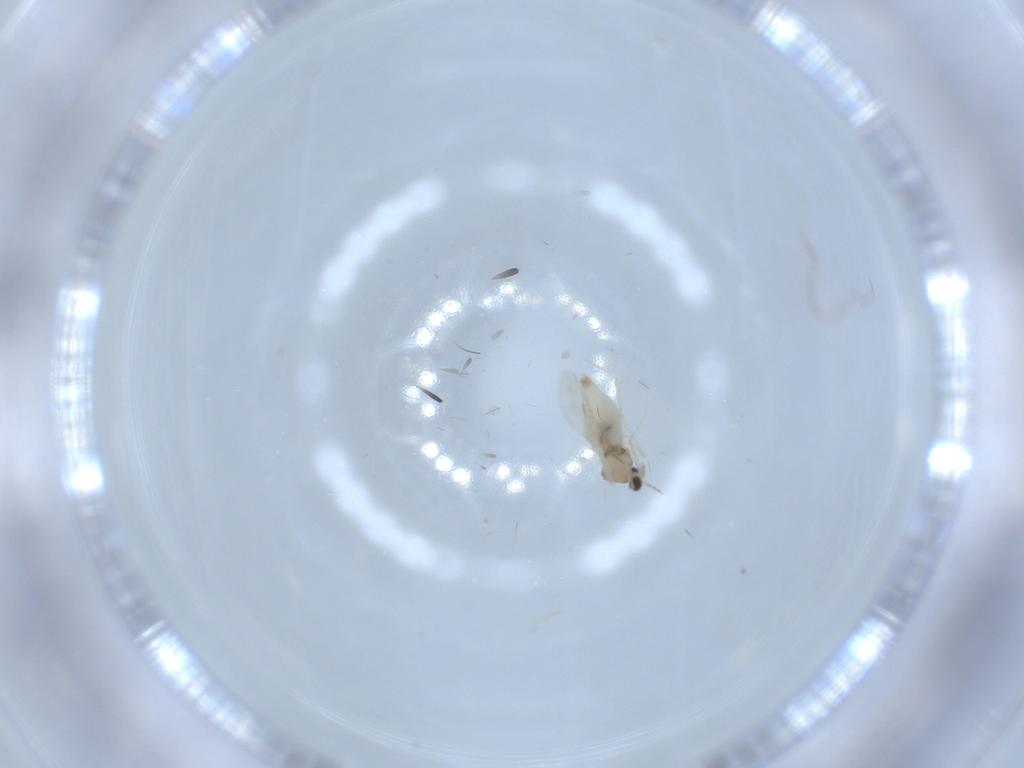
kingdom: Animalia
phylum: Arthropoda
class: Insecta
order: Diptera
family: Cecidomyiidae
